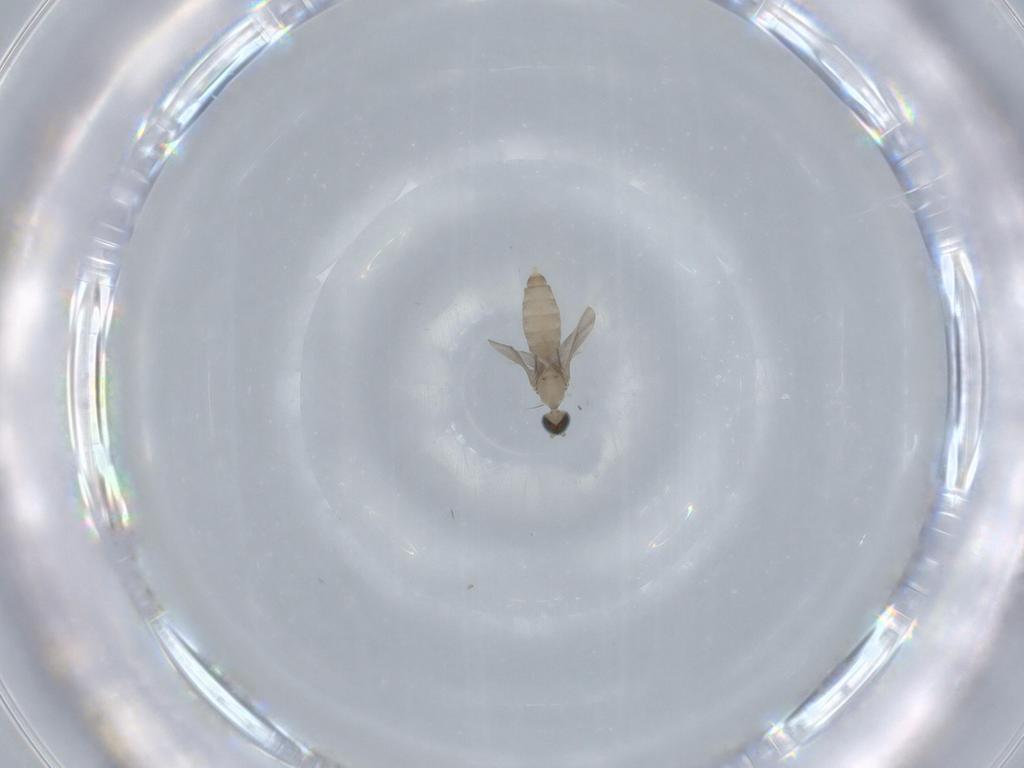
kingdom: Animalia
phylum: Arthropoda
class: Insecta
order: Diptera
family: Cecidomyiidae
